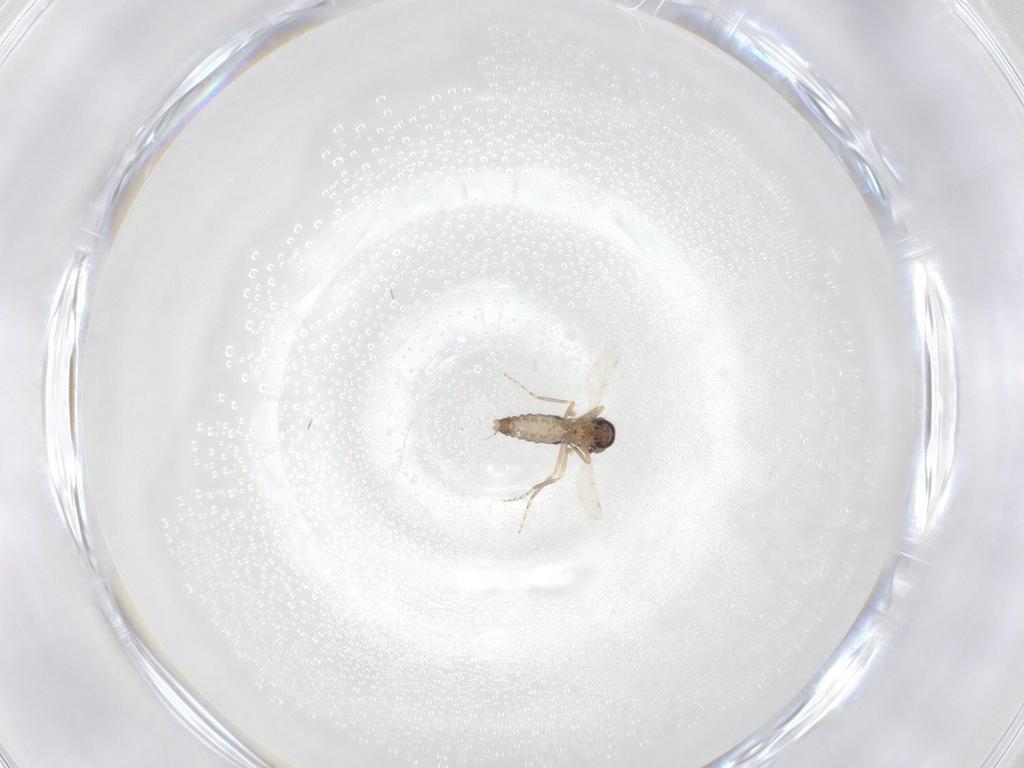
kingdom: Animalia
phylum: Arthropoda
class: Insecta
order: Diptera
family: Ceratopogonidae
